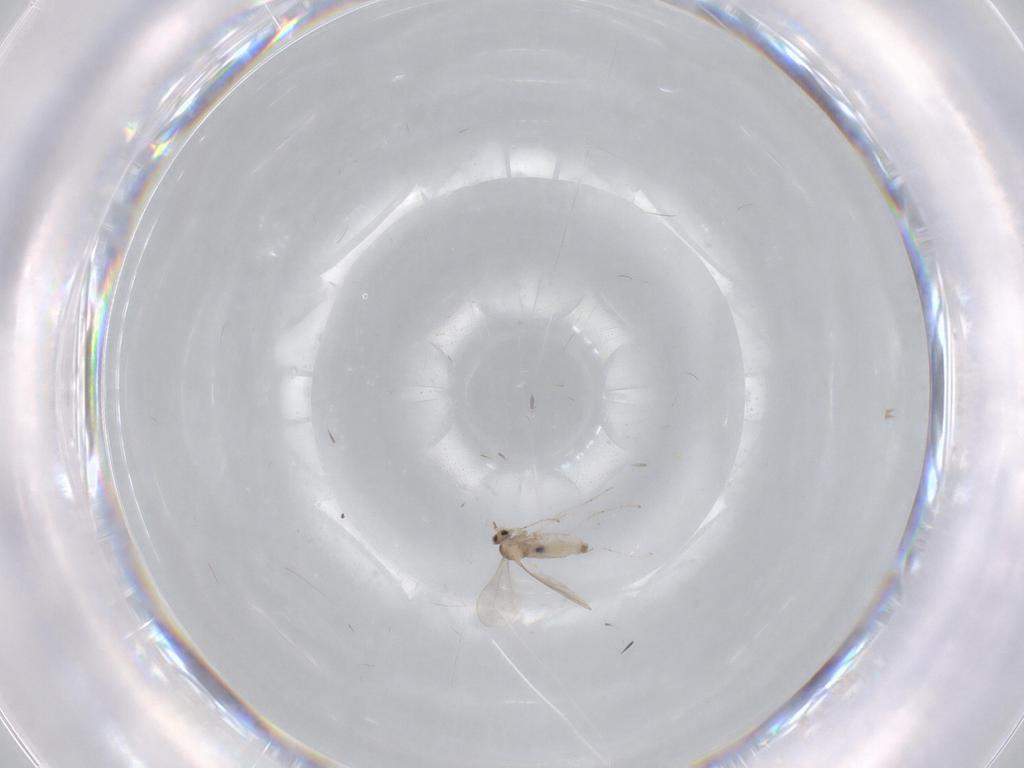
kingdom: Animalia
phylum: Arthropoda
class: Insecta
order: Diptera
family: Cecidomyiidae
